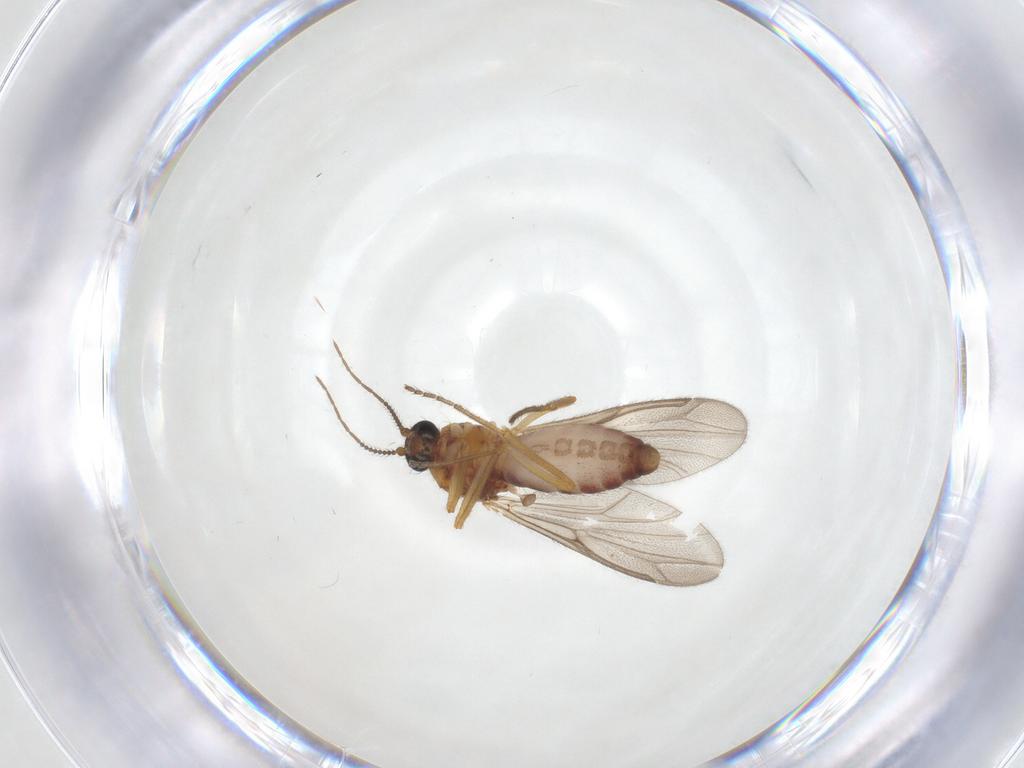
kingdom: Animalia
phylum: Arthropoda
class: Insecta
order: Diptera
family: Ceratopogonidae
